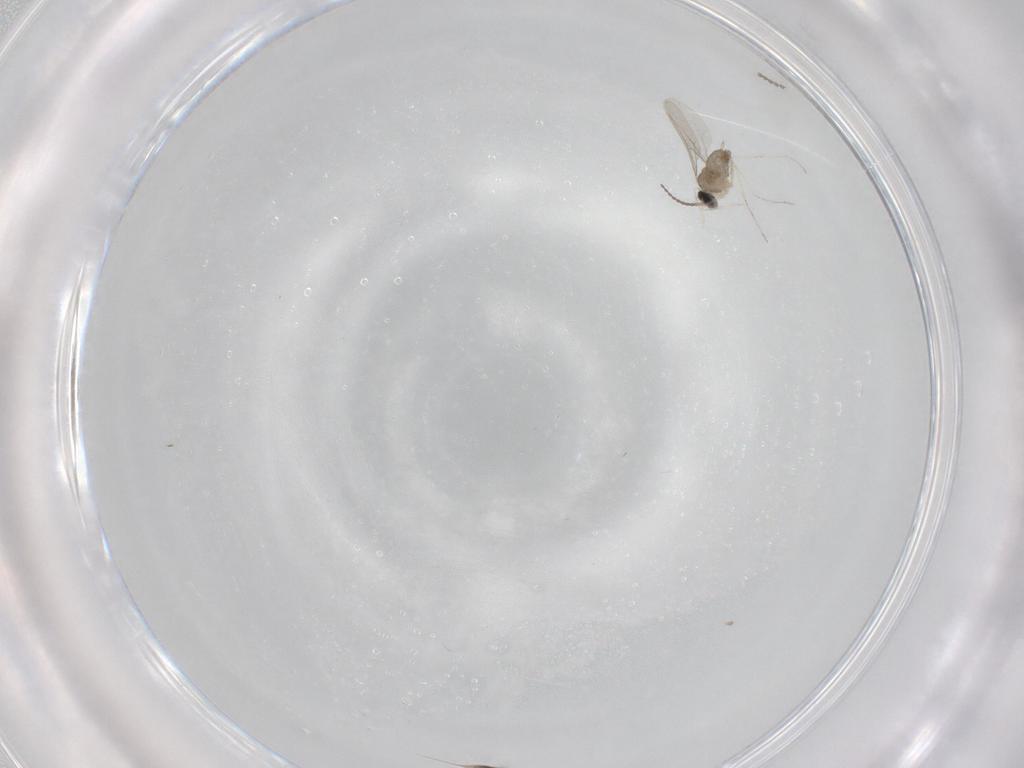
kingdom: Animalia
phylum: Arthropoda
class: Insecta
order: Diptera
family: Cecidomyiidae
